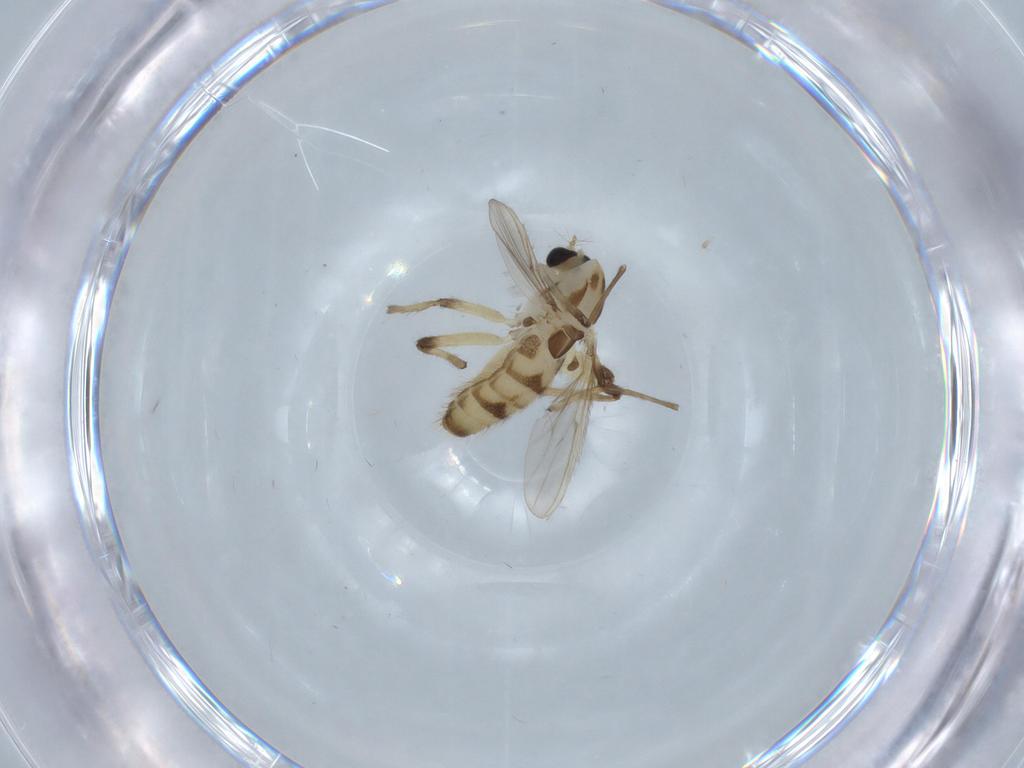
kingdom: Animalia
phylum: Arthropoda
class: Insecta
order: Diptera
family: Chironomidae
